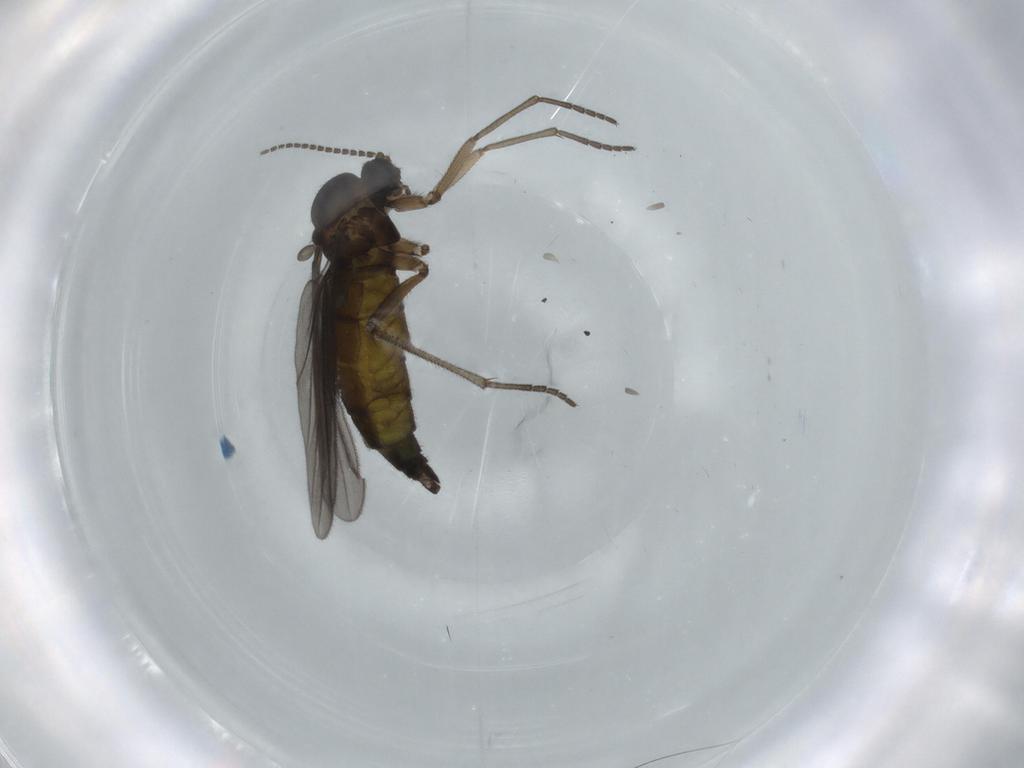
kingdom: Animalia
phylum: Arthropoda
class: Insecta
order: Diptera
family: Sciaridae
